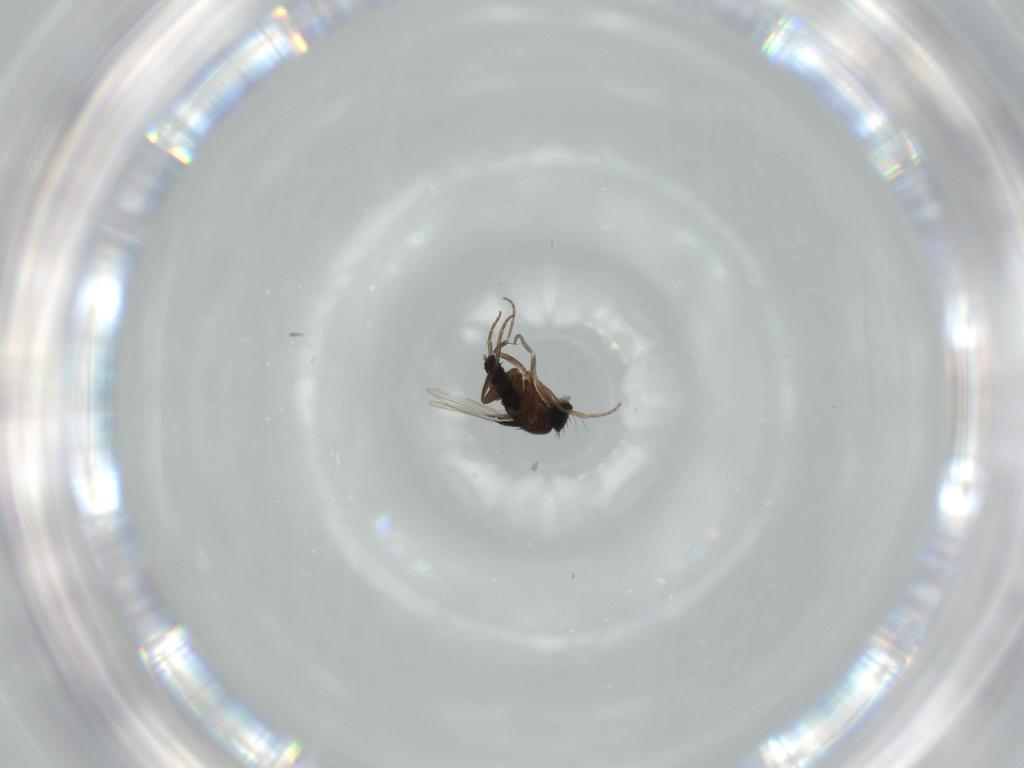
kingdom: Animalia
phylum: Arthropoda
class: Insecta
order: Diptera
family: Phoridae
